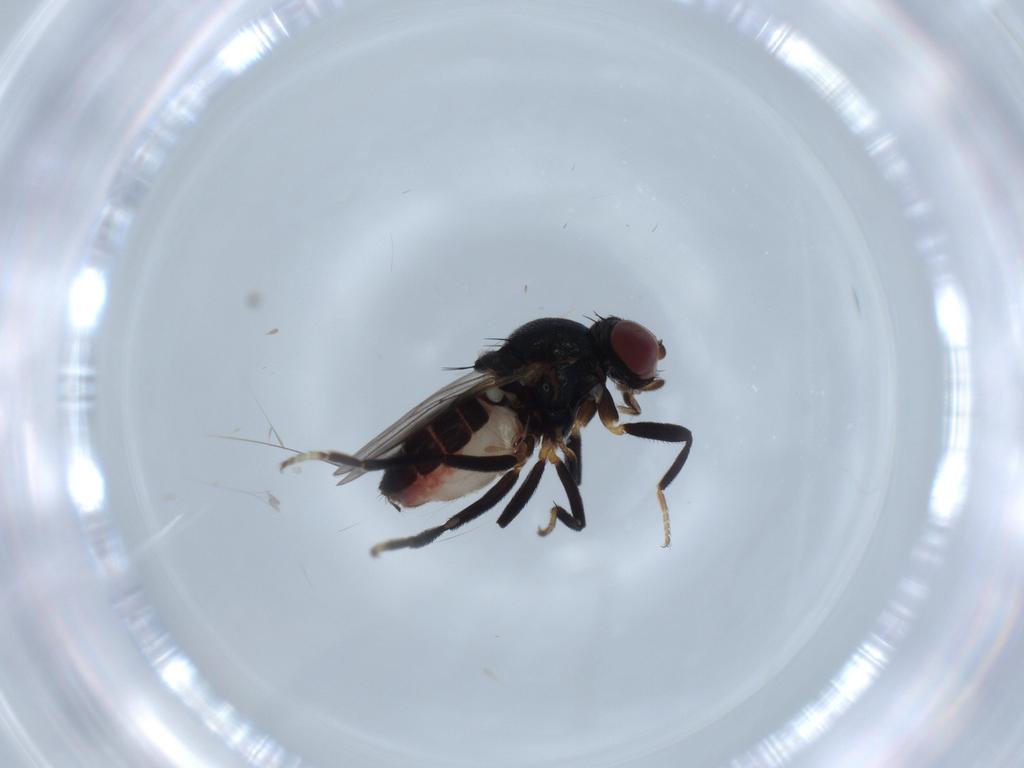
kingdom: Animalia
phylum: Arthropoda
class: Insecta
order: Diptera
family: Chloropidae
